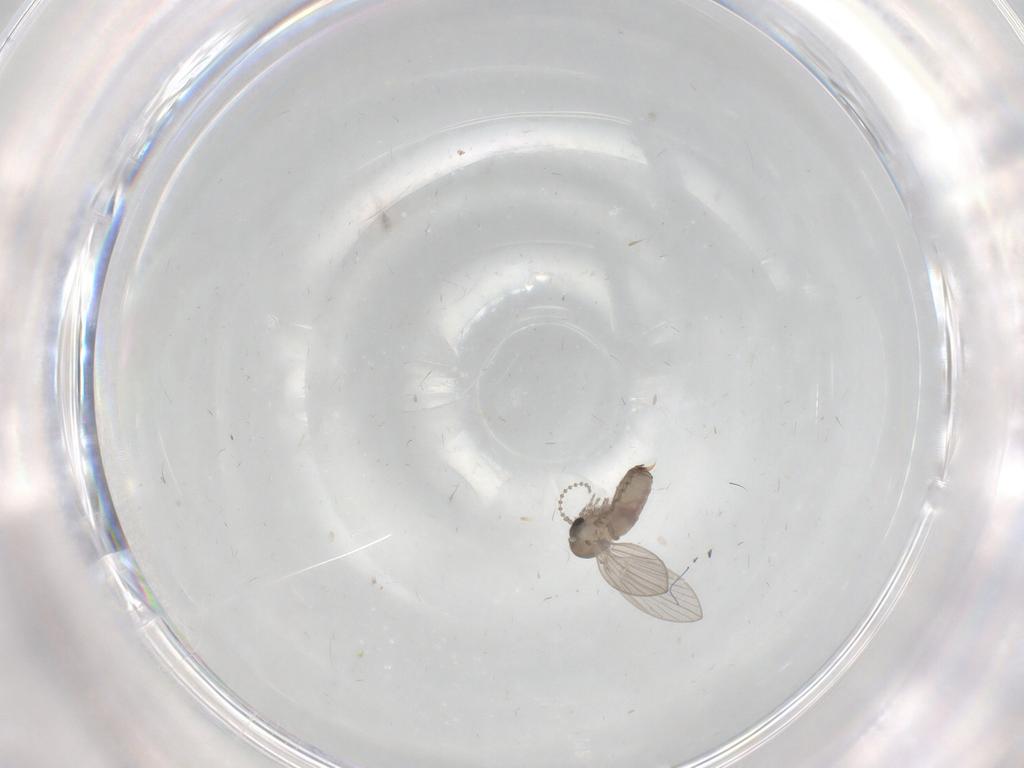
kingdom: Animalia
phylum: Arthropoda
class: Insecta
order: Diptera
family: Psychodidae
